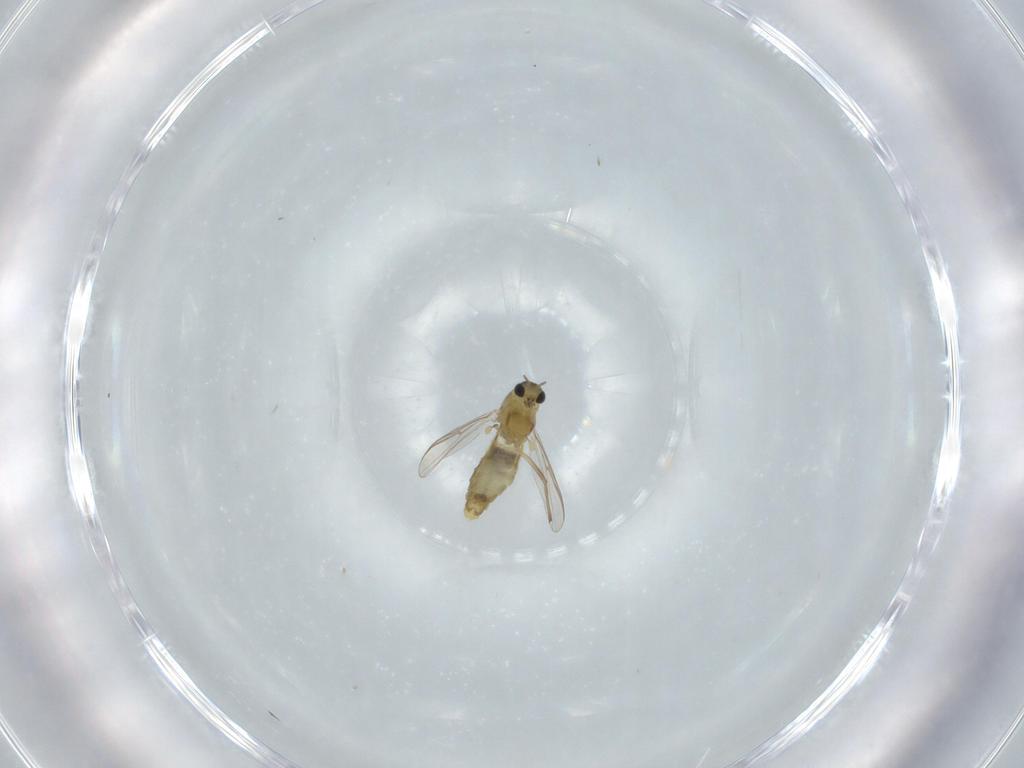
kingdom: Animalia
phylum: Arthropoda
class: Insecta
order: Diptera
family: Chironomidae
